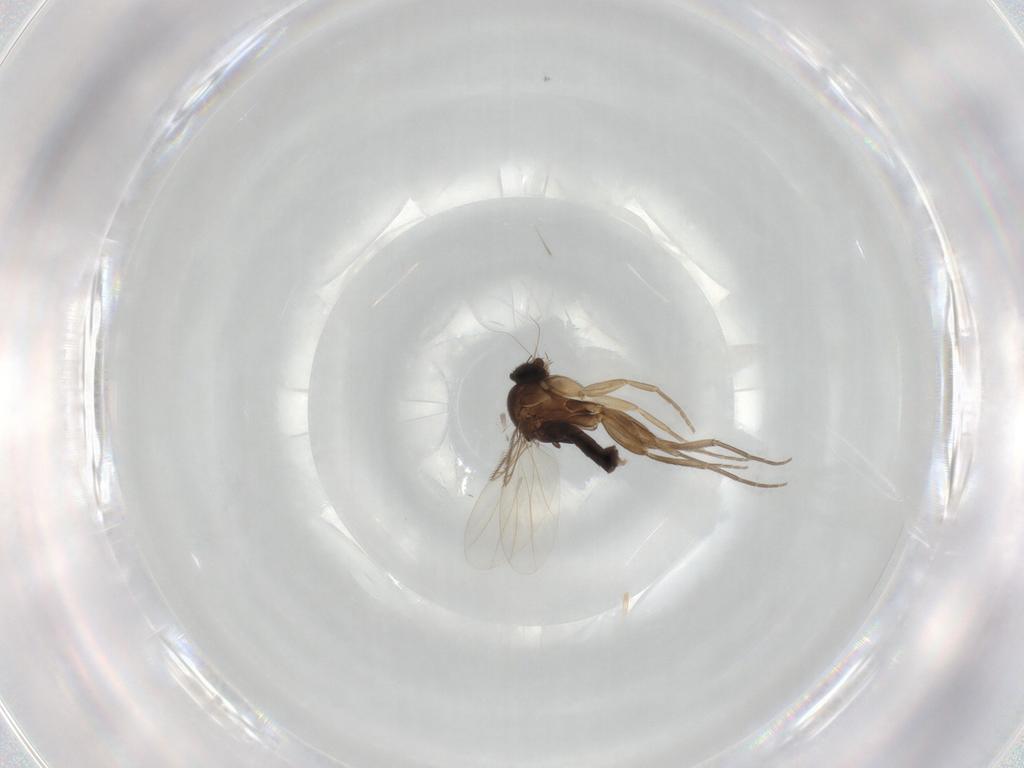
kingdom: Animalia
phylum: Arthropoda
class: Insecta
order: Diptera
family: Phoridae
